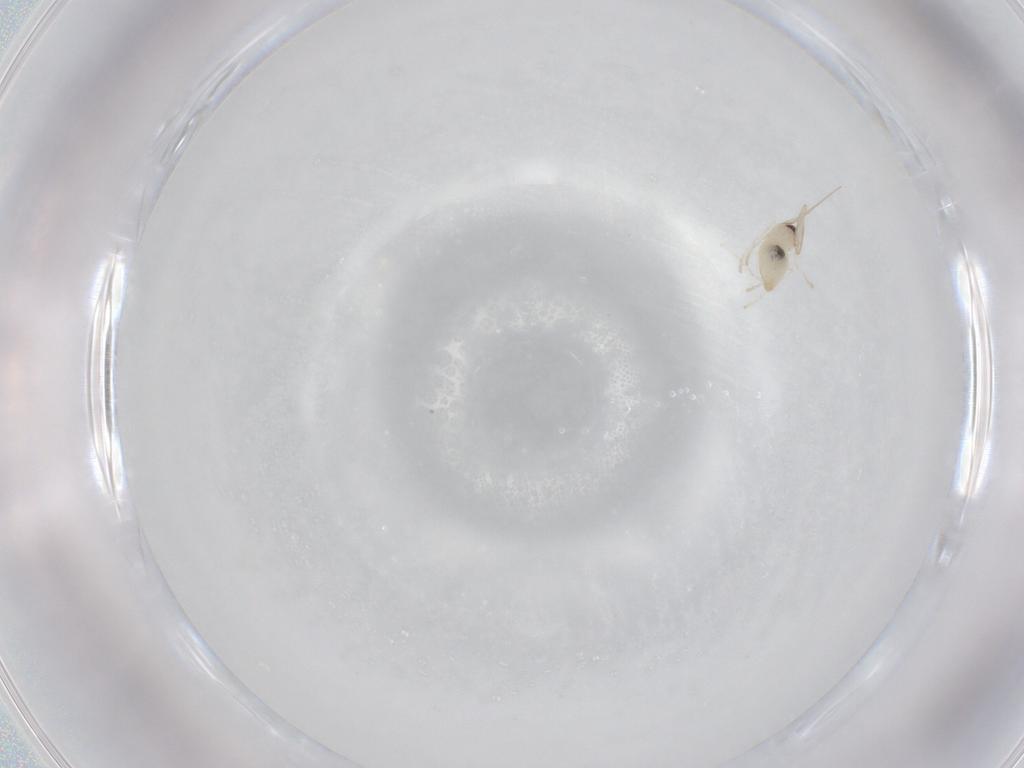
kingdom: Animalia
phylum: Arthropoda
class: Insecta
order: Diptera
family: Cecidomyiidae
